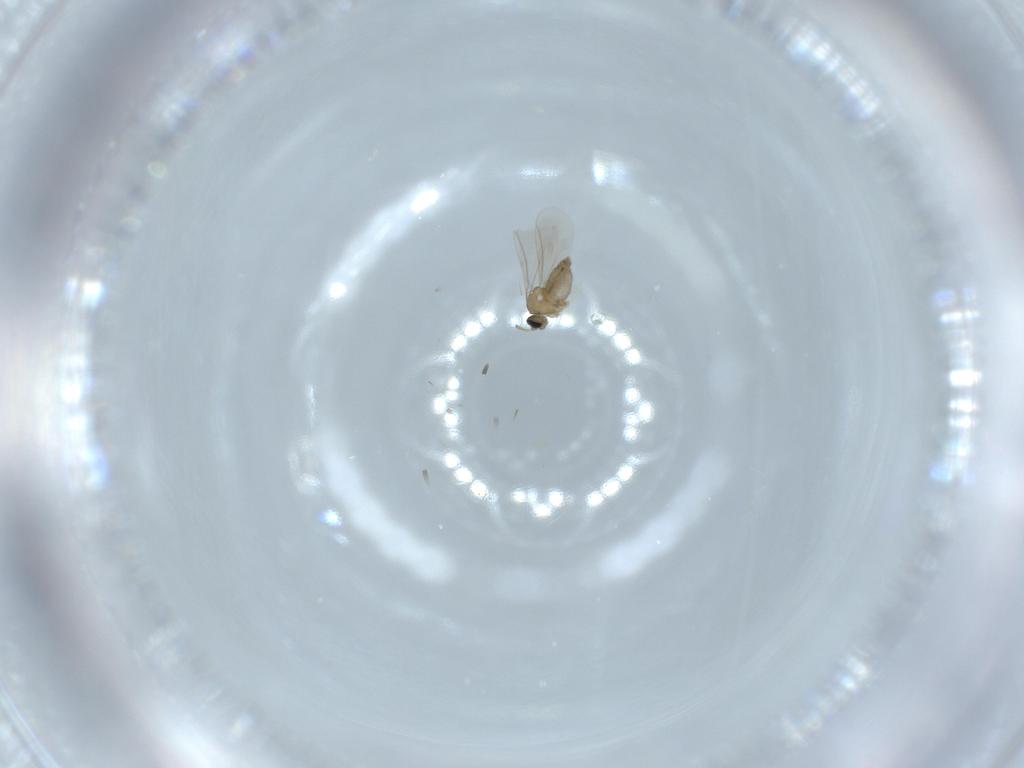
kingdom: Animalia
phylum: Arthropoda
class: Insecta
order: Diptera
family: Cecidomyiidae
